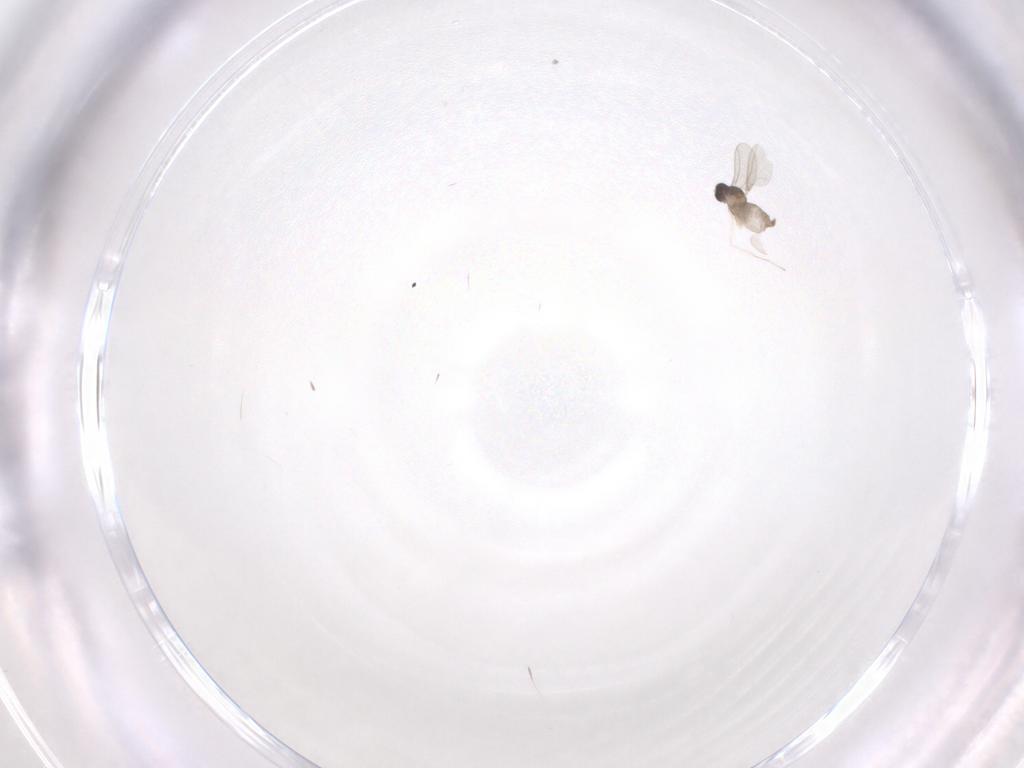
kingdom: Animalia
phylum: Arthropoda
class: Insecta
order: Diptera
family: Cecidomyiidae
